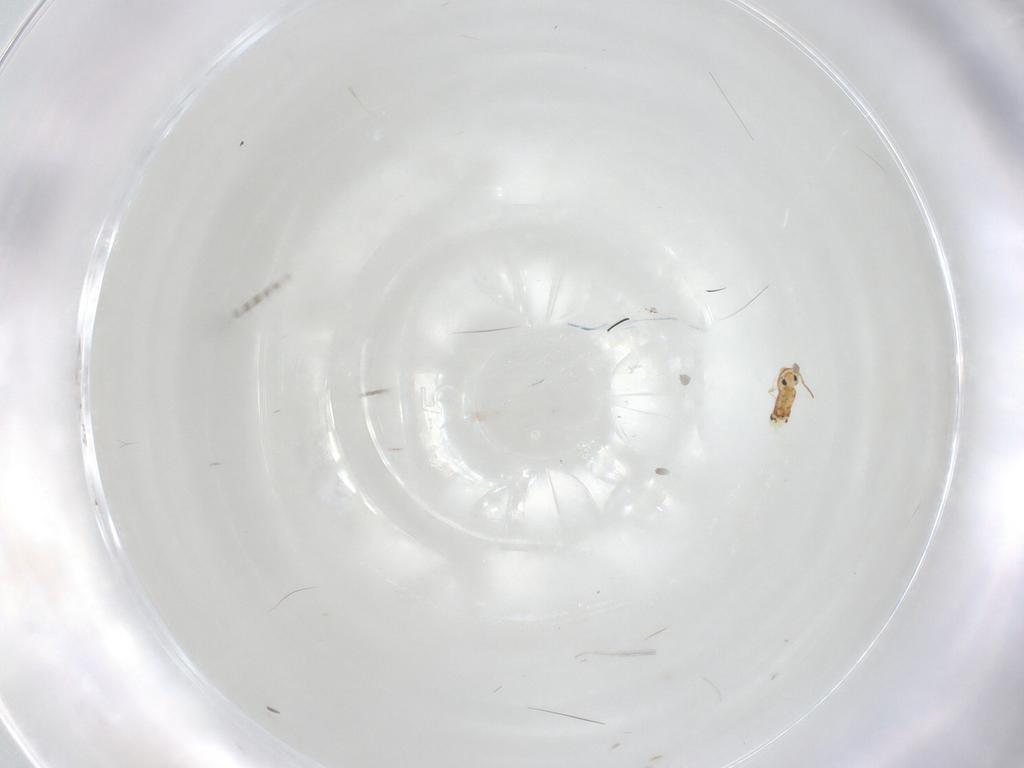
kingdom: Animalia
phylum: Arthropoda
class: Collembola
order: Symphypleona
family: Bourletiellidae
